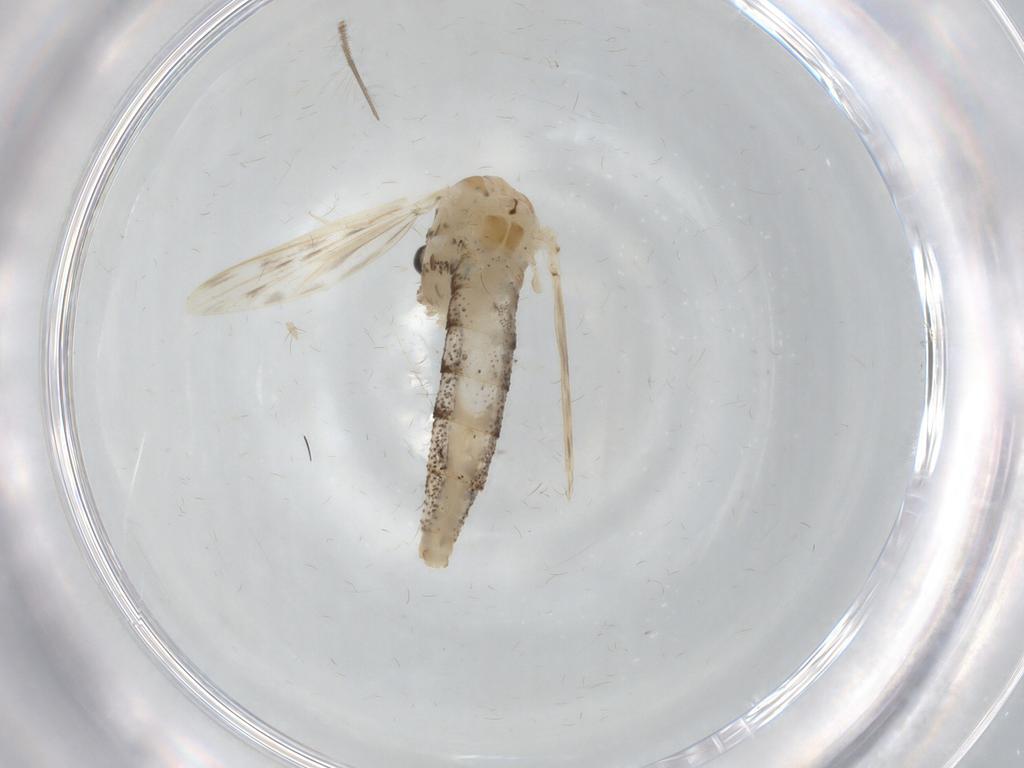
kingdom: Animalia
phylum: Arthropoda
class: Insecta
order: Diptera
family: Chaoboridae
